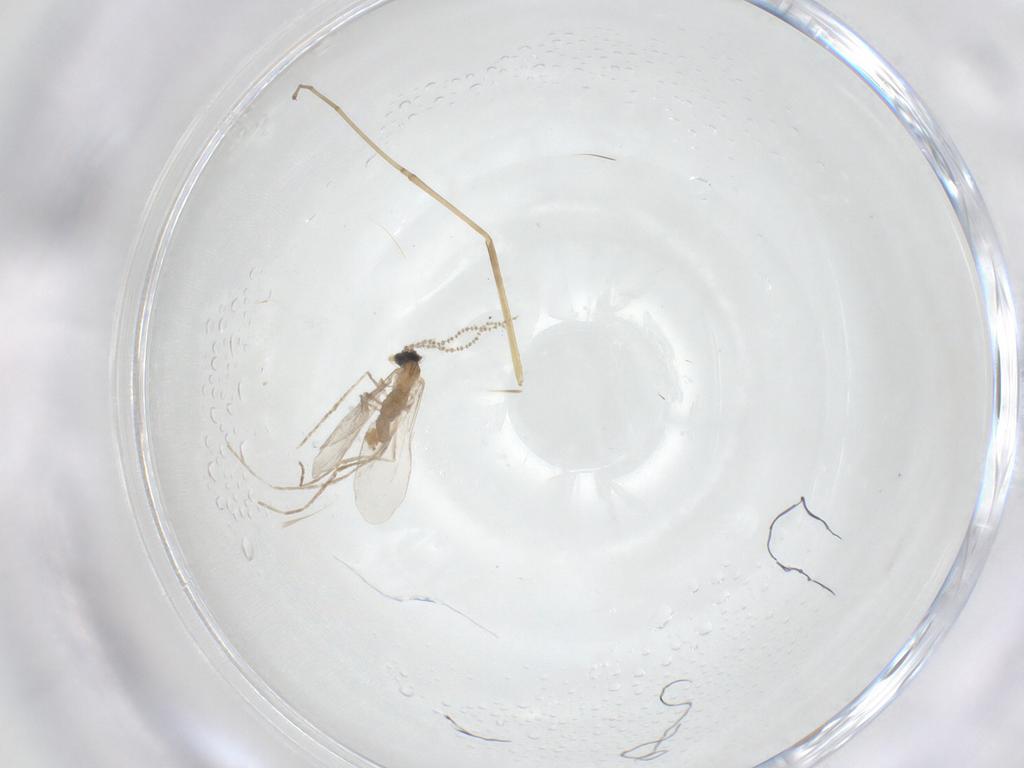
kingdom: Animalia
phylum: Arthropoda
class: Insecta
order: Diptera
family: Cecidomyiidae
